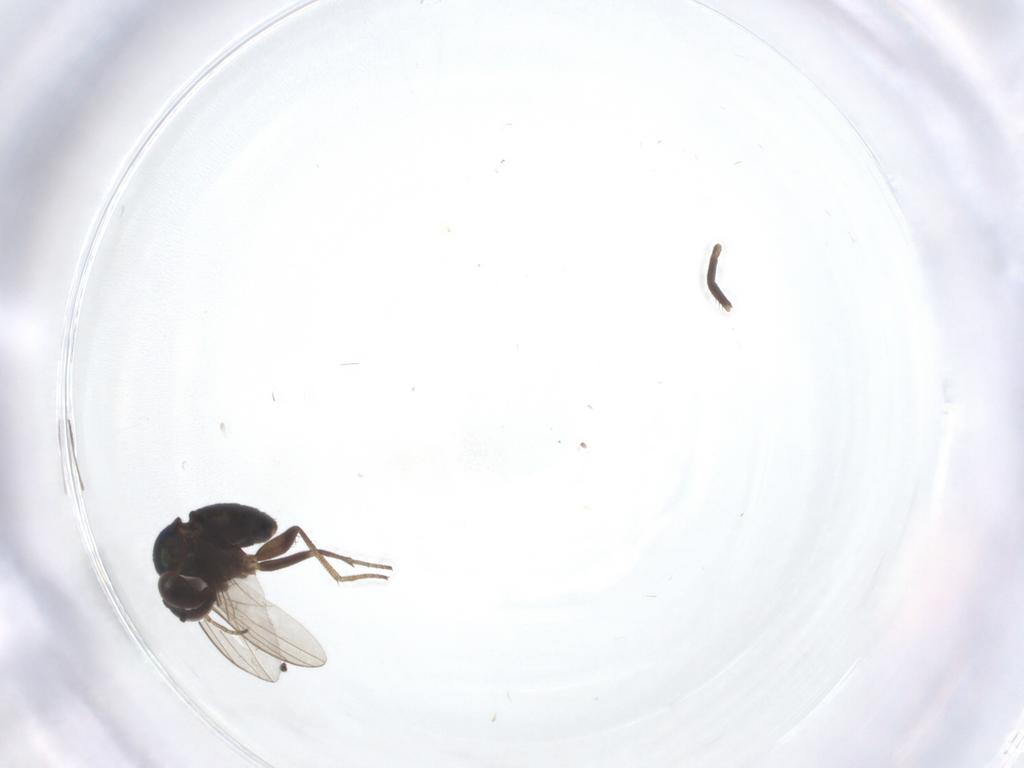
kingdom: Animalia
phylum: Arthropoda
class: Insecta
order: Diptera
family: Dolichopodidae
